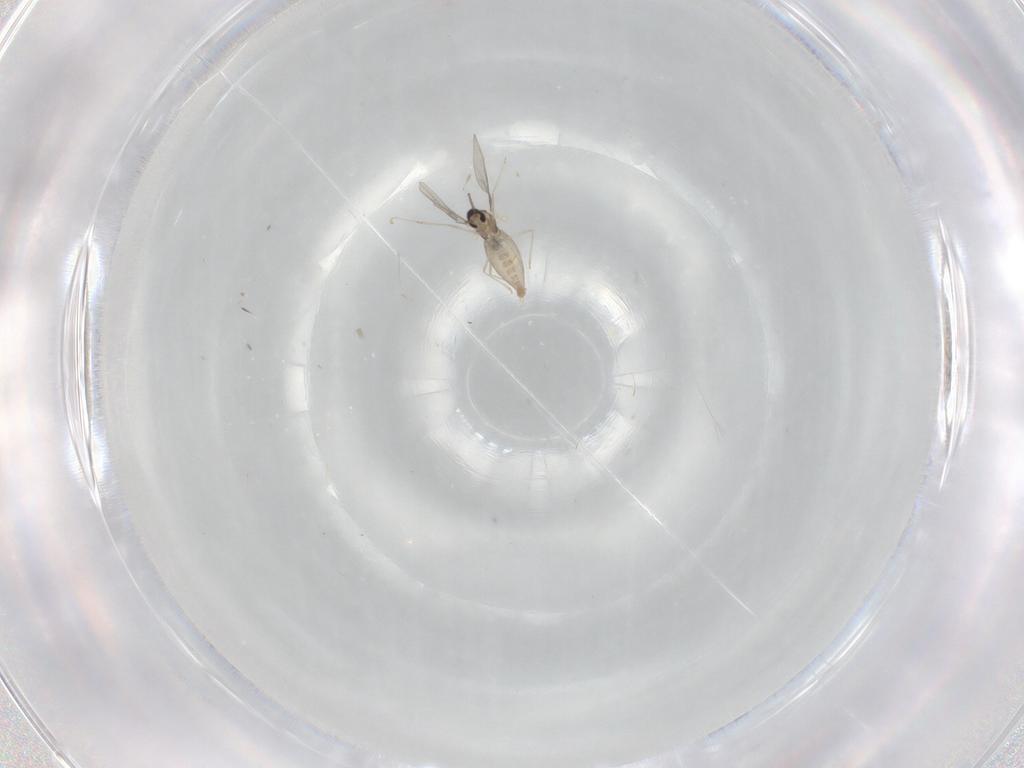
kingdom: Animalia
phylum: Arthropoda
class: Insecta
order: Diptera
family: Cecidomyiidae
